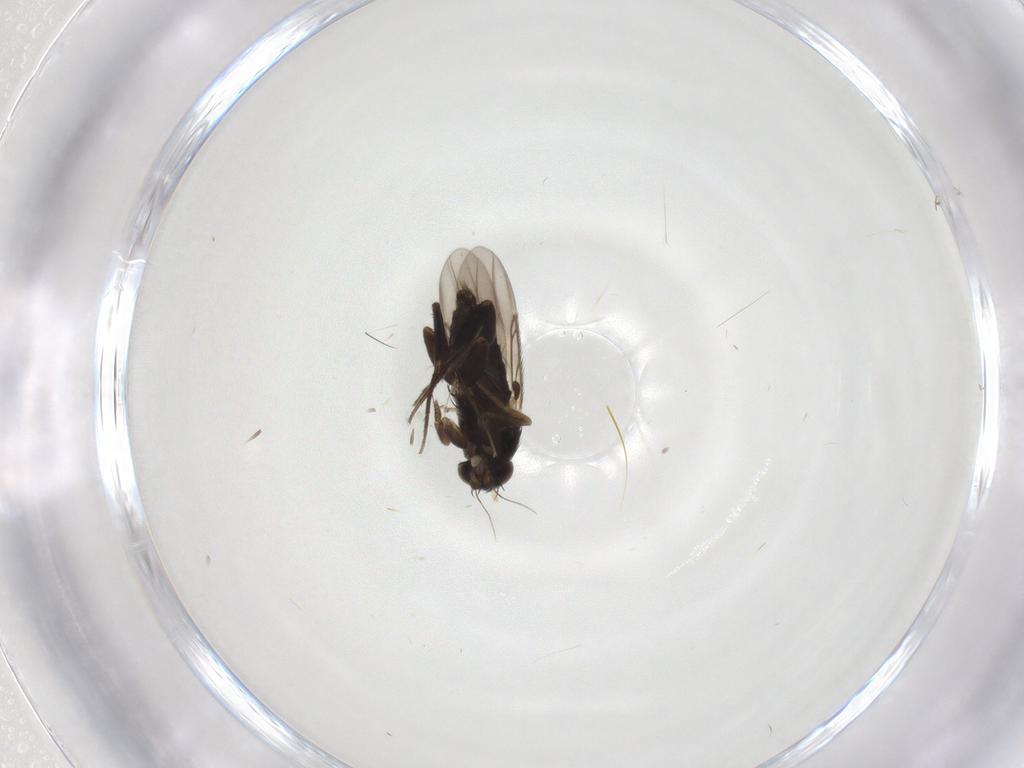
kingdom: Animalia
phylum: Arthropoda
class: Insecta
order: Diptera
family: Phoridae
